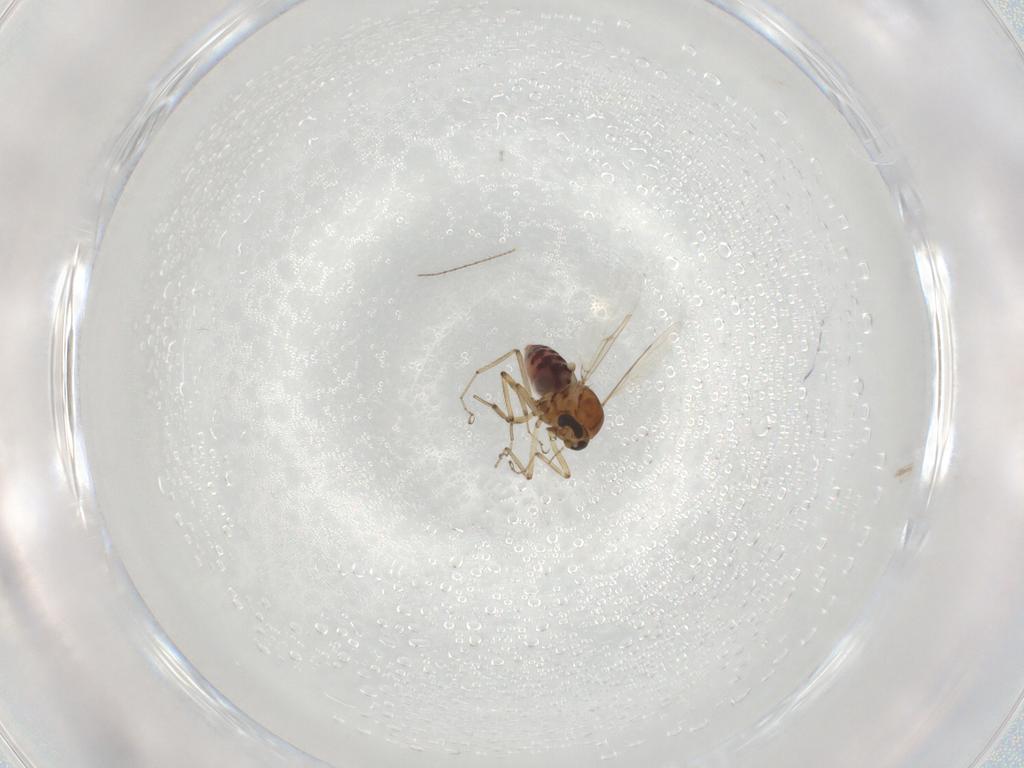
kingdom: Animalia
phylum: Arthropoda
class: Insecta
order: Diptera
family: Ceratopogonidae
